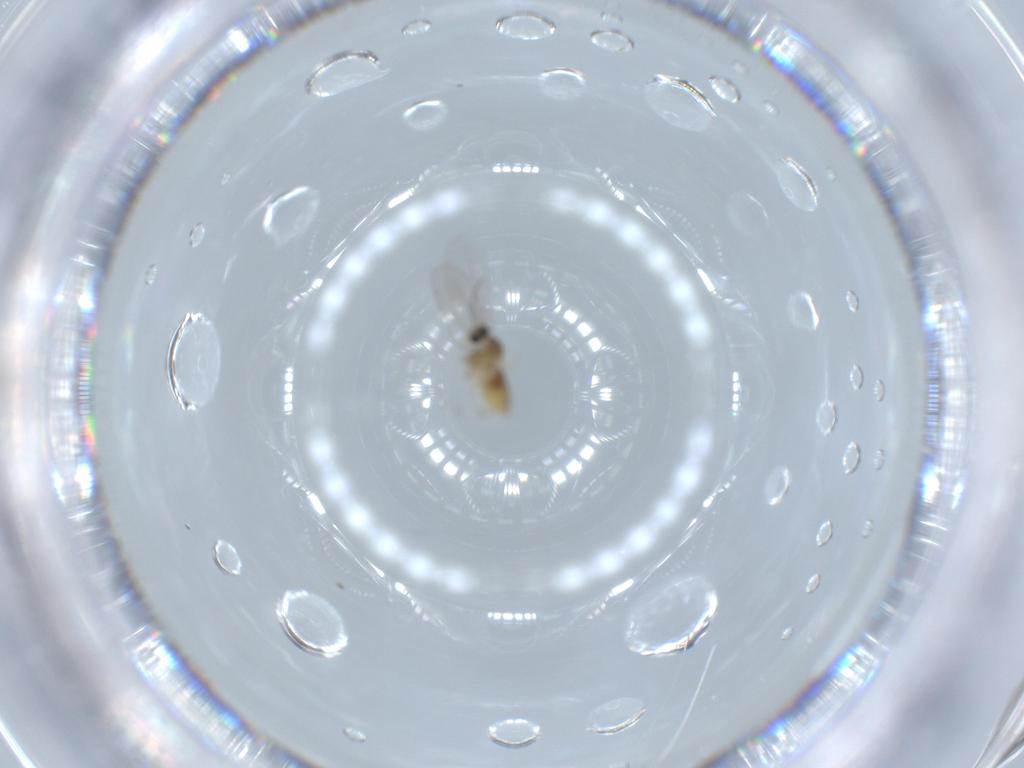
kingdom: Animalia
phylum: Arthropoda
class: Insecta
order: Diptera
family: Cecidomyiidae
